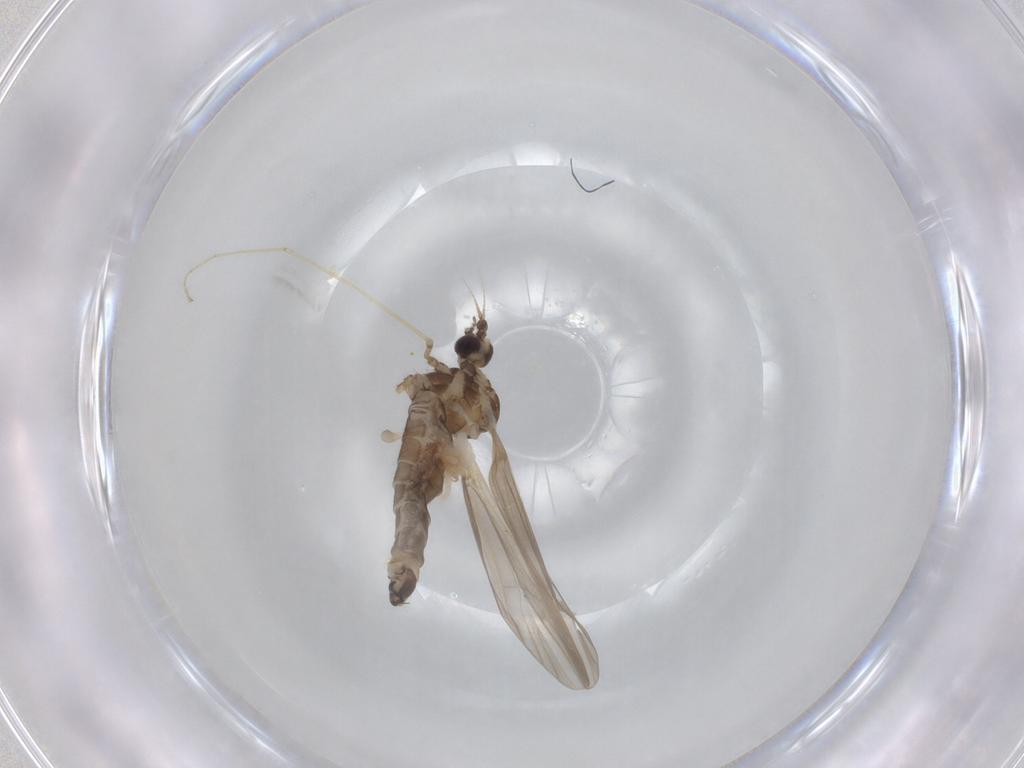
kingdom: Animalia
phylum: Arthropoda
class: Insecta
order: Diptera
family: Limoniidae
